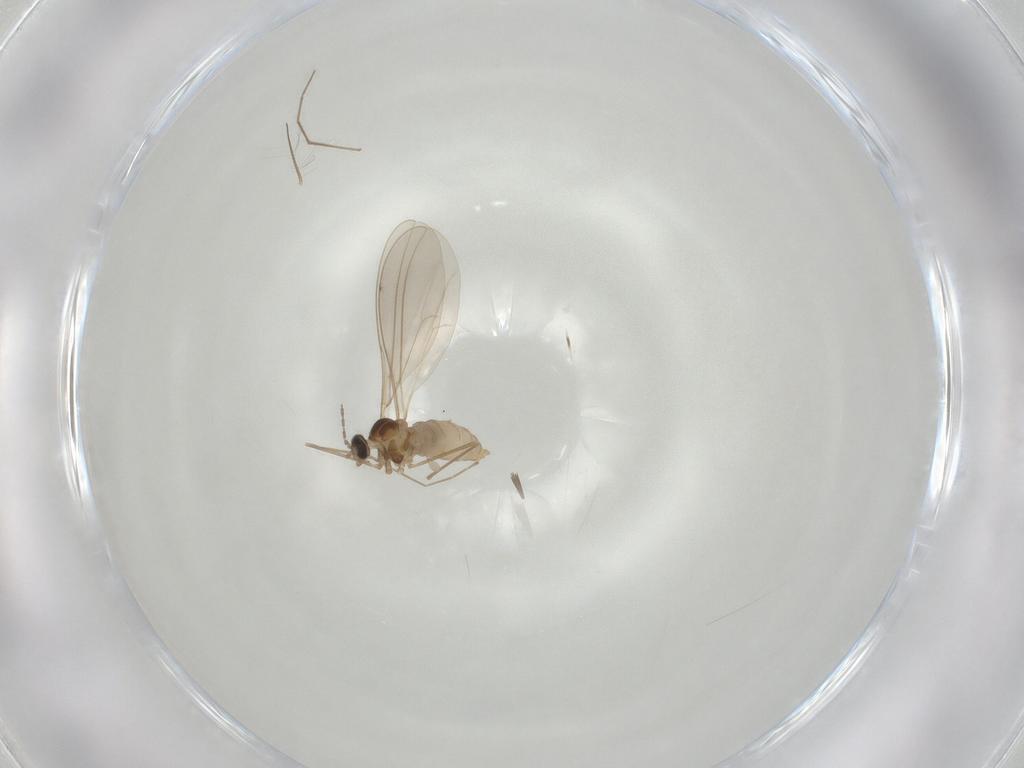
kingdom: Animalia
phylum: Arthropoda
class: Insecta
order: Diptera
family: Cecidomyiidae
